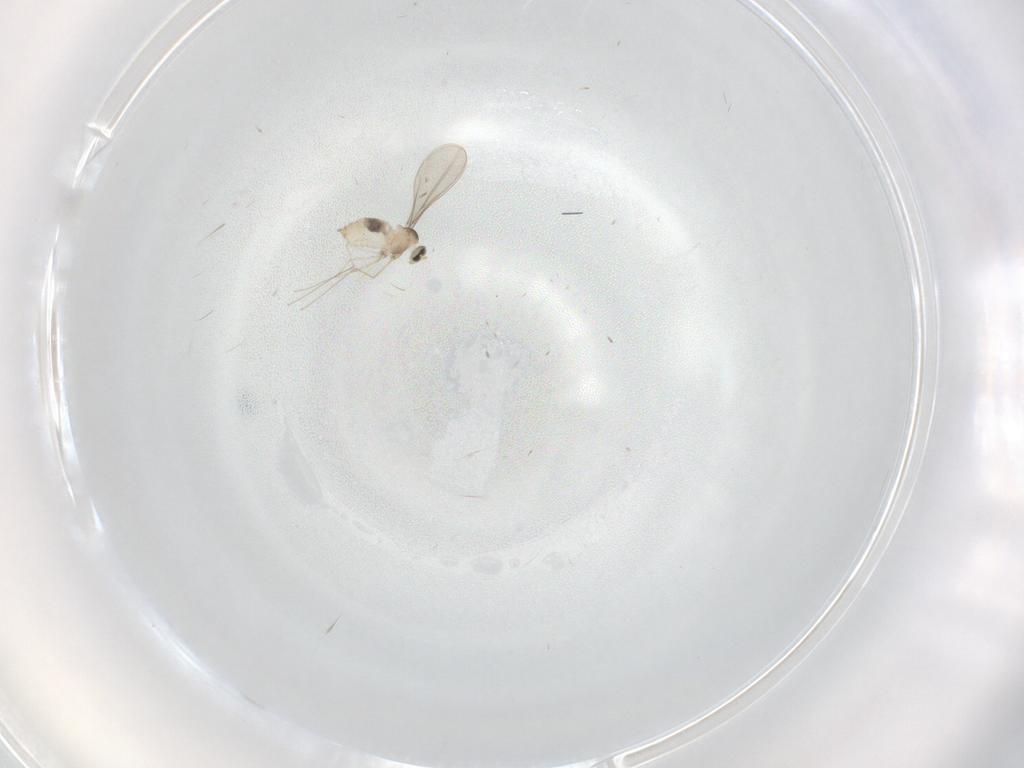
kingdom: Animalia
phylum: Arthropoda
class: Insecta
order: Diptera
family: Cecidomyiidae
